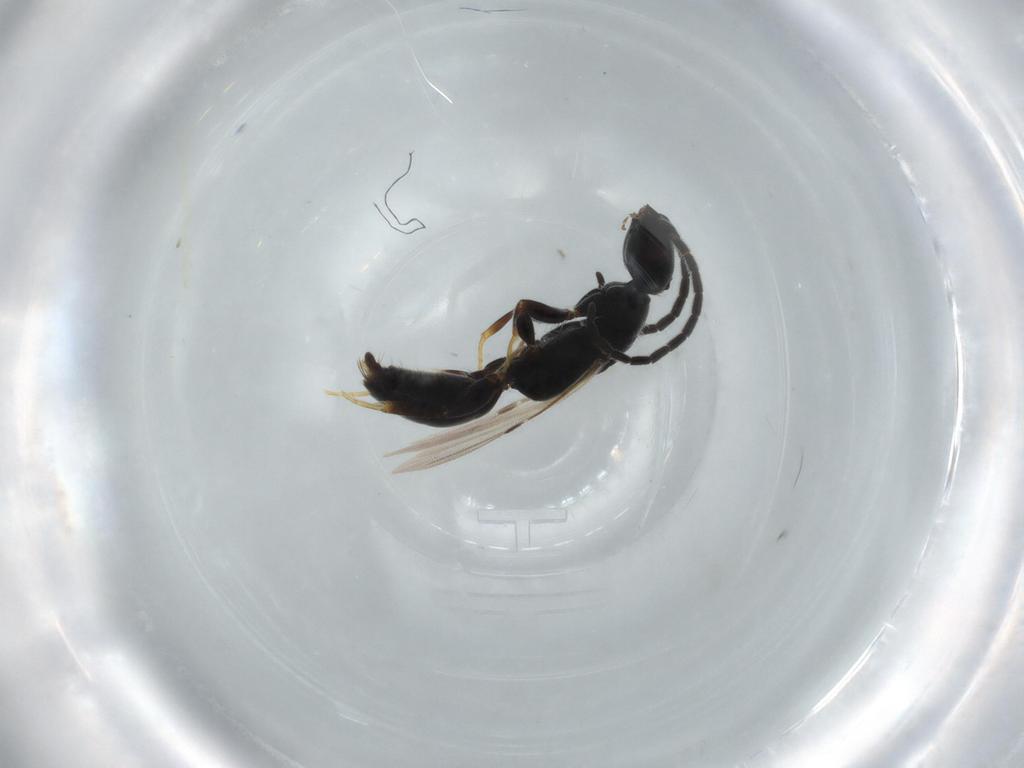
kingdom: Animalia
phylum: Arthropoda
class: Insecta
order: Hymenoptera
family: Bethylidae
